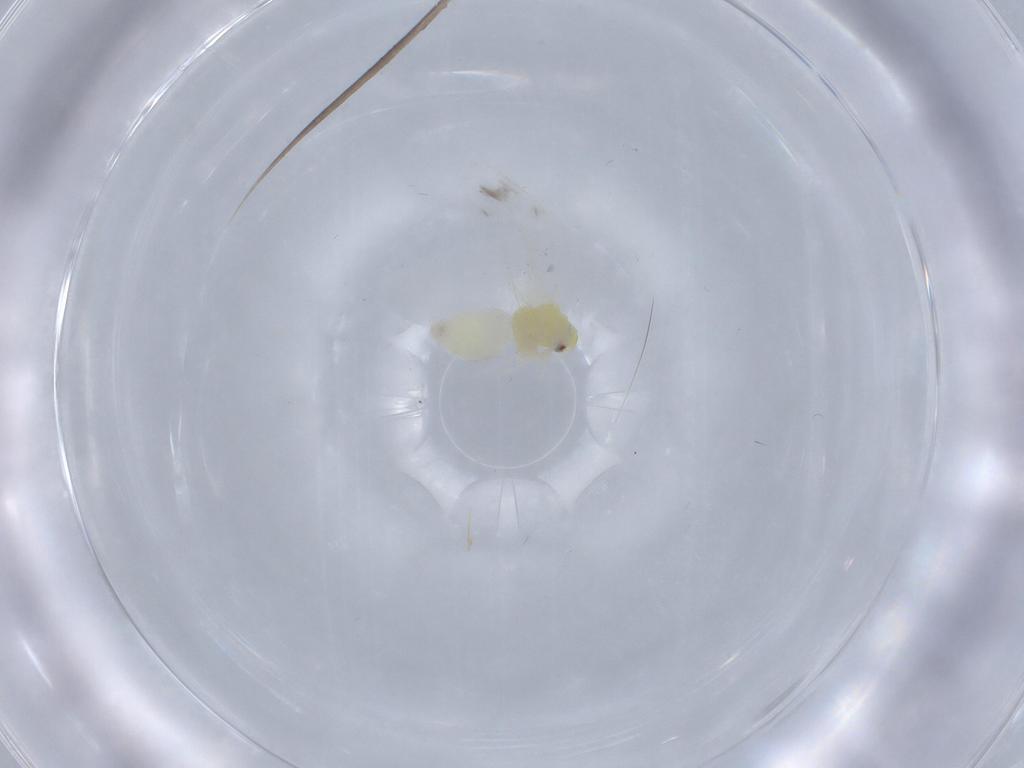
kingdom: Animalia
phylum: Arthropoda
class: Insecta
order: Hemiptera
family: Cercopidae
